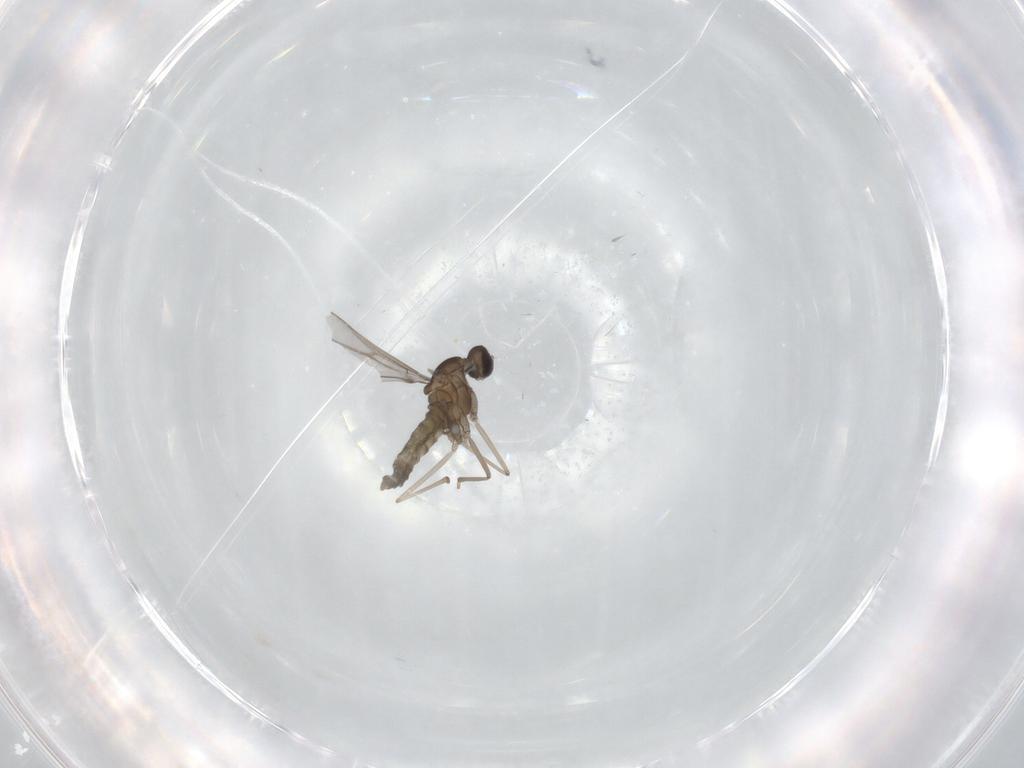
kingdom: Animalia
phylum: Arthropoda
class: Insecta
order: Diptera
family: Cecidomyiidae
